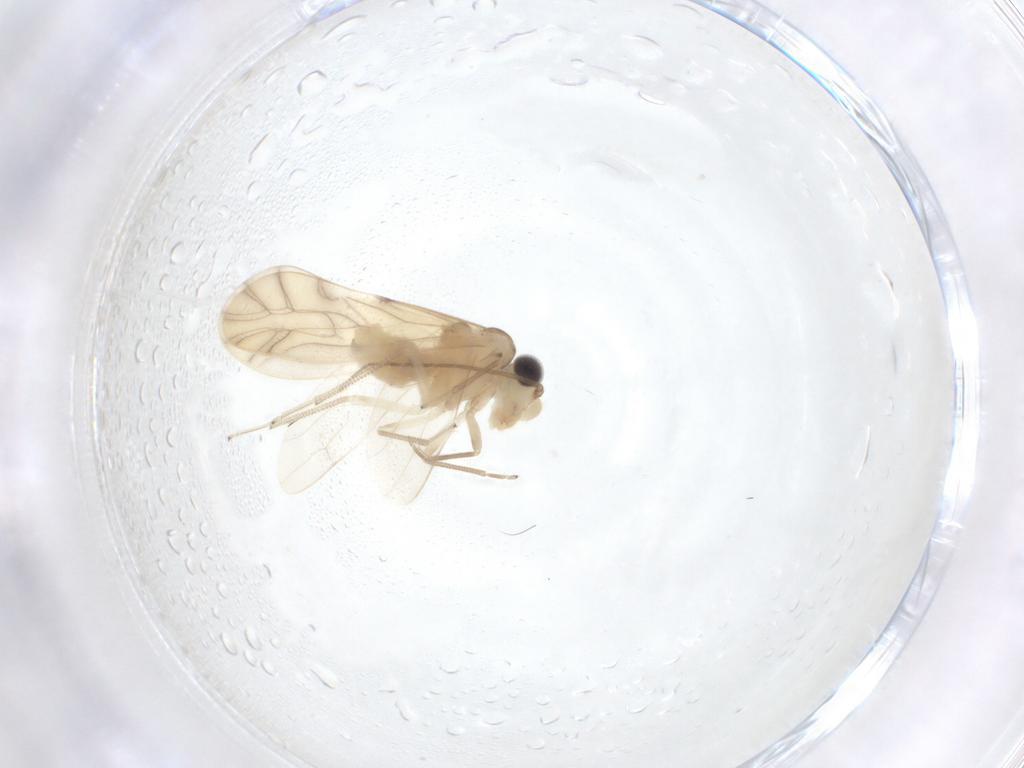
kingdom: Animalia
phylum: Arthropoda
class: Insecta
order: Psocodea
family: Caeciliusidae
